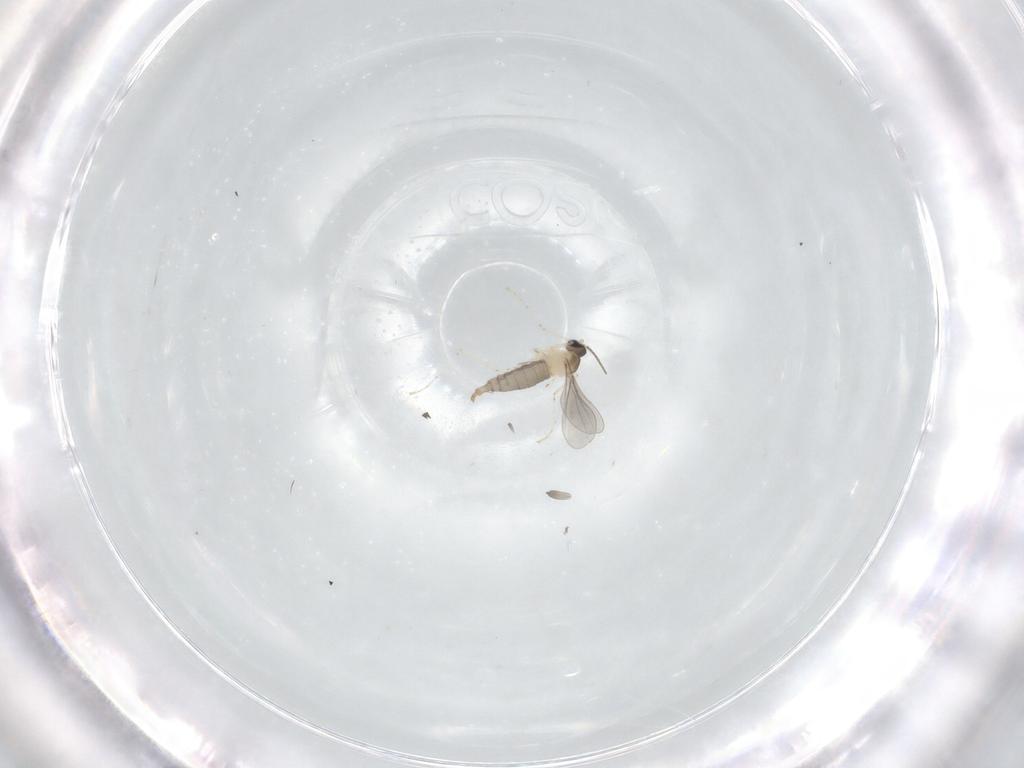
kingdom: Animalia
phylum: Arthropoda
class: Insecta
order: Diptera
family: Cecidomyiidae
